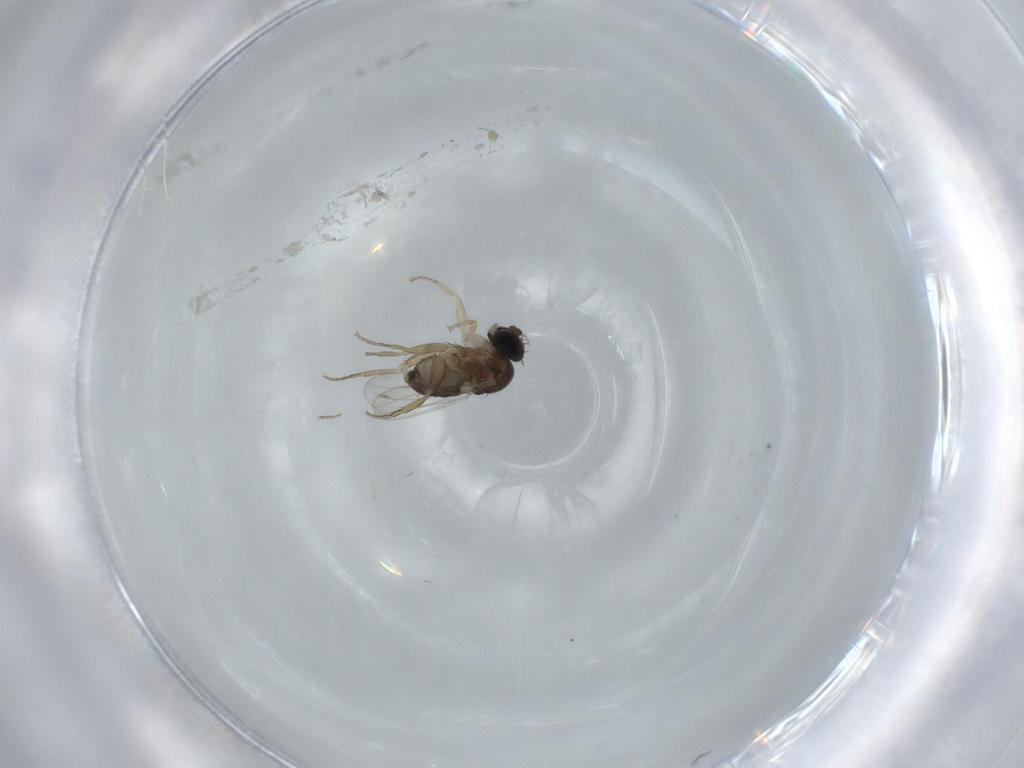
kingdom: Animalia
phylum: Arthropoda
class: Insecta
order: Diptera
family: Phoridae
